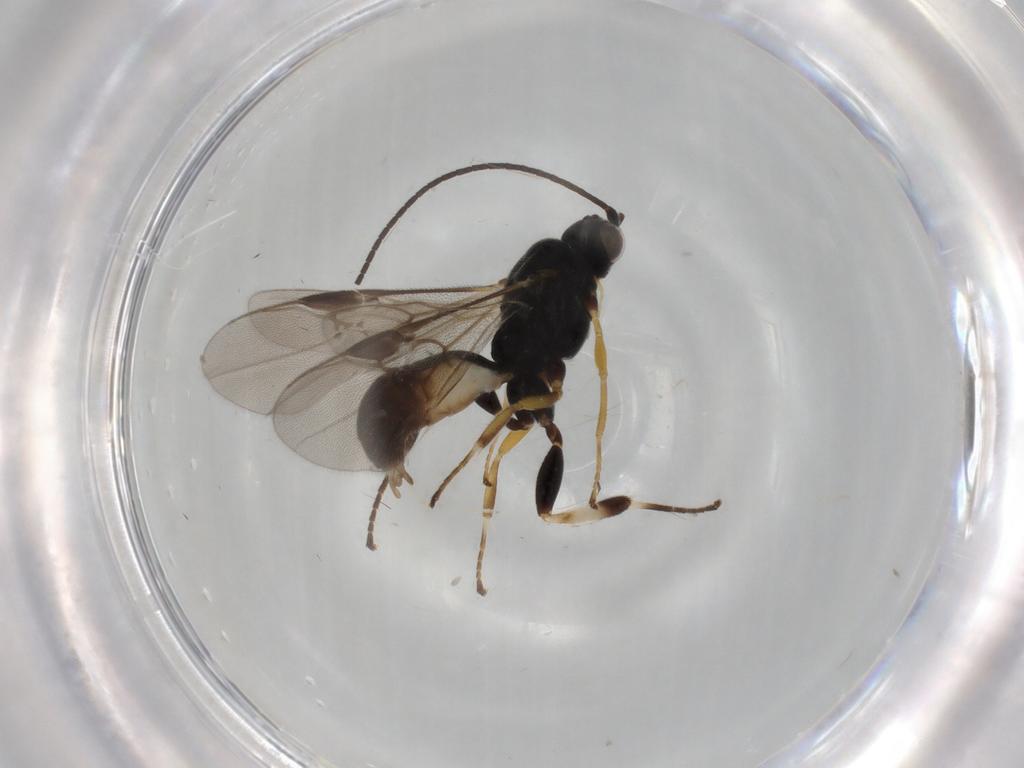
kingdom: Animalia
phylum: Arthropoda
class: Insecta
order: Hymenoptera
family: Braconidae
